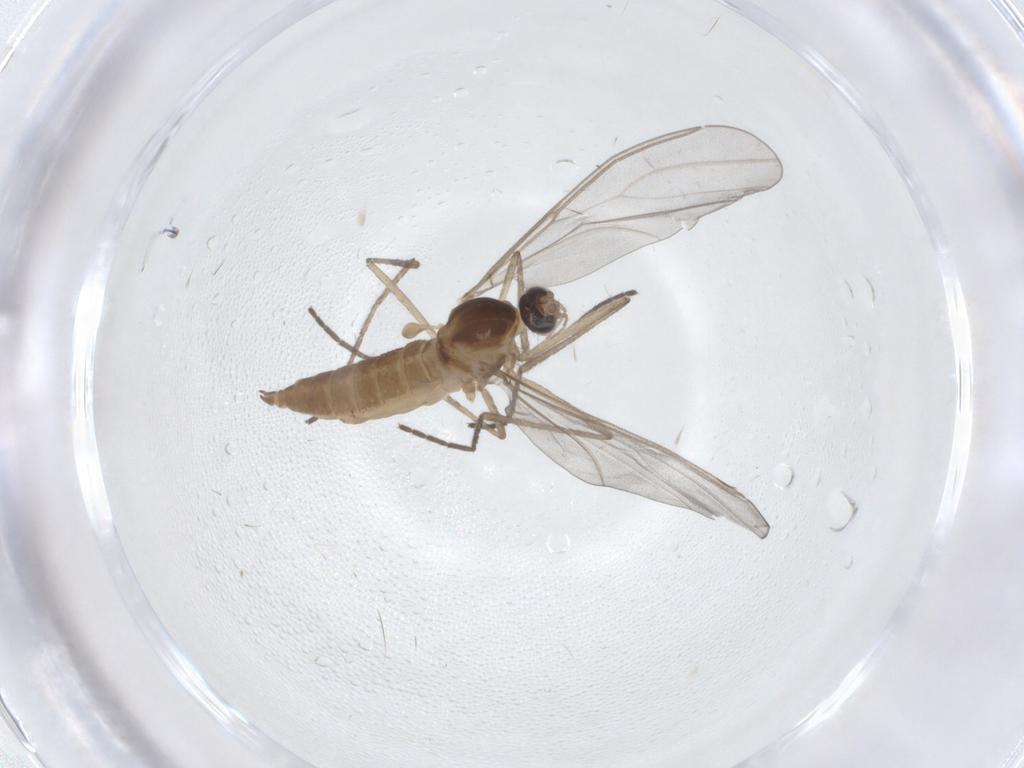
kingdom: Animalia
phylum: Arthropoda
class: Insecta
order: Diptera
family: Cecidomyiidae
